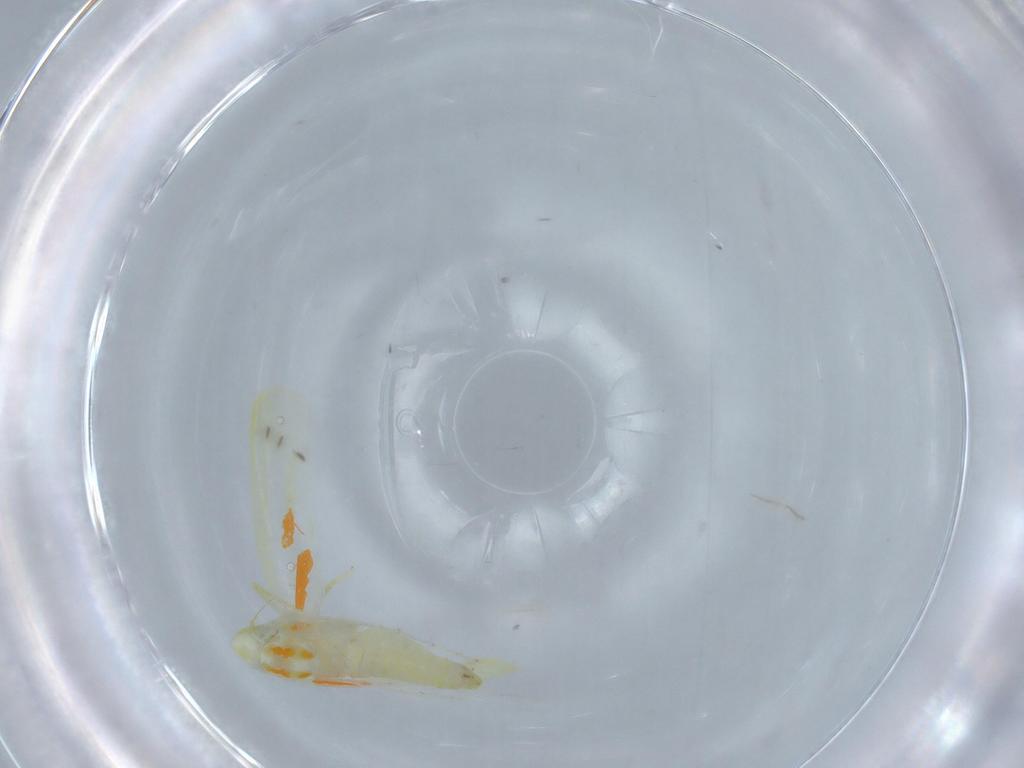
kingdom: Animalia
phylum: Arthropoda
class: Insecta
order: Hemiptera
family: Cicadellidae
